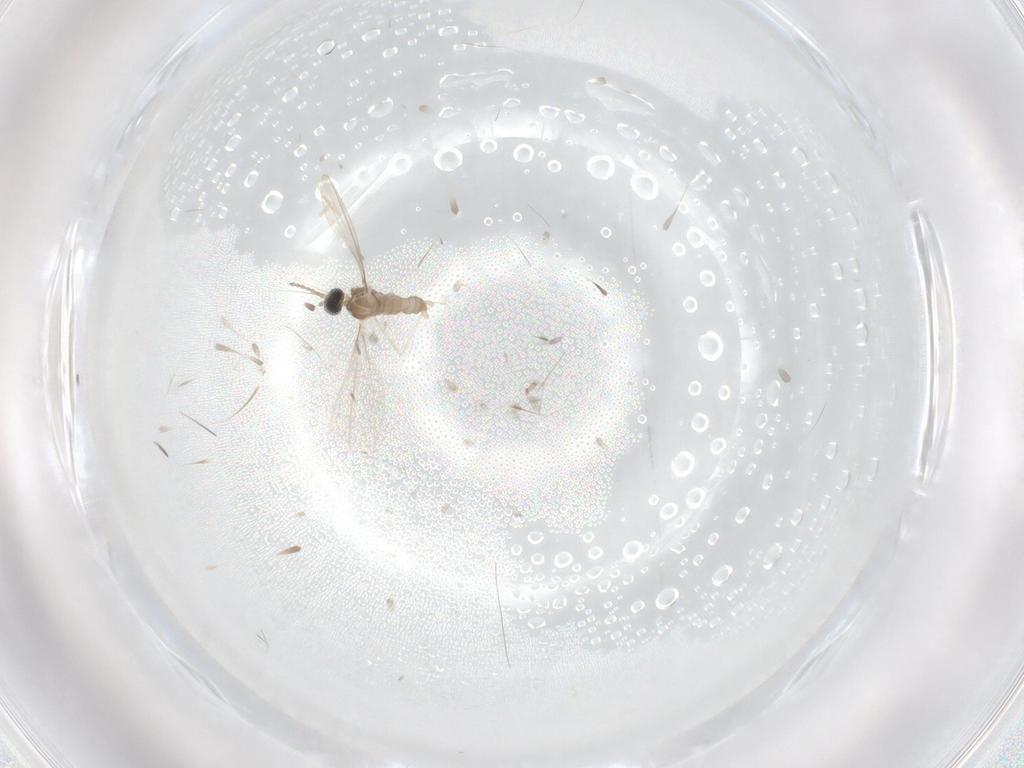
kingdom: Animalia
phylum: Arthropoda
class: Insecta
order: Diptera
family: Cecidomyiidae
